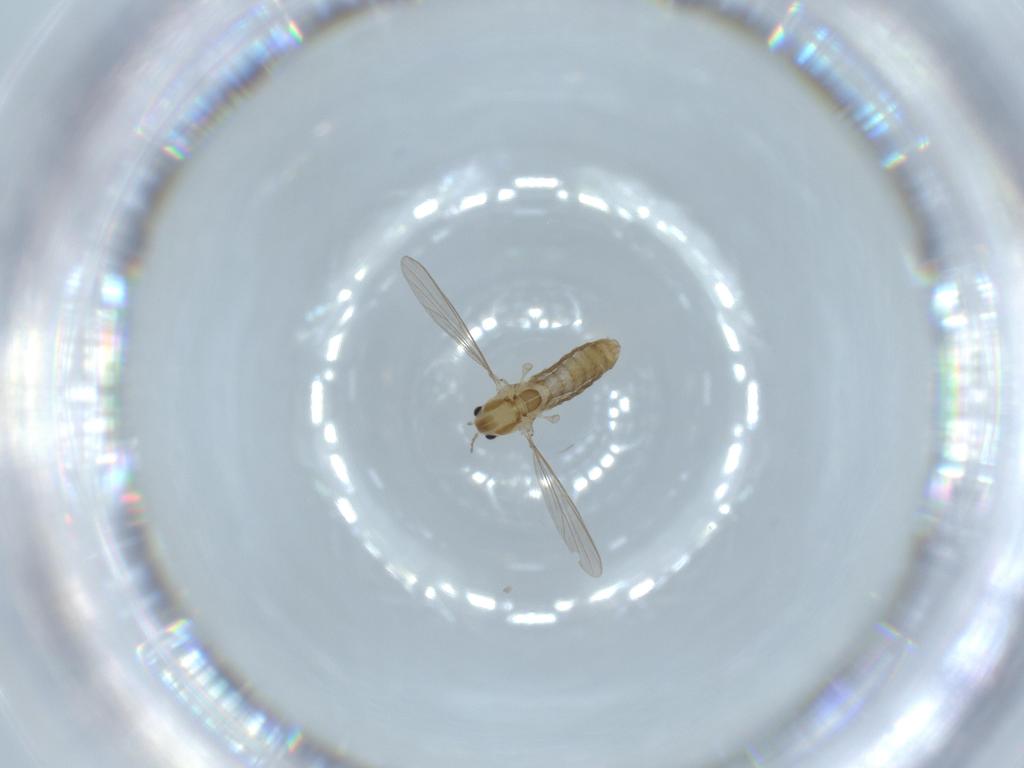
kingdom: Animalia
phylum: Arthropoda
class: Insecta
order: Diptera
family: Chironomidae
